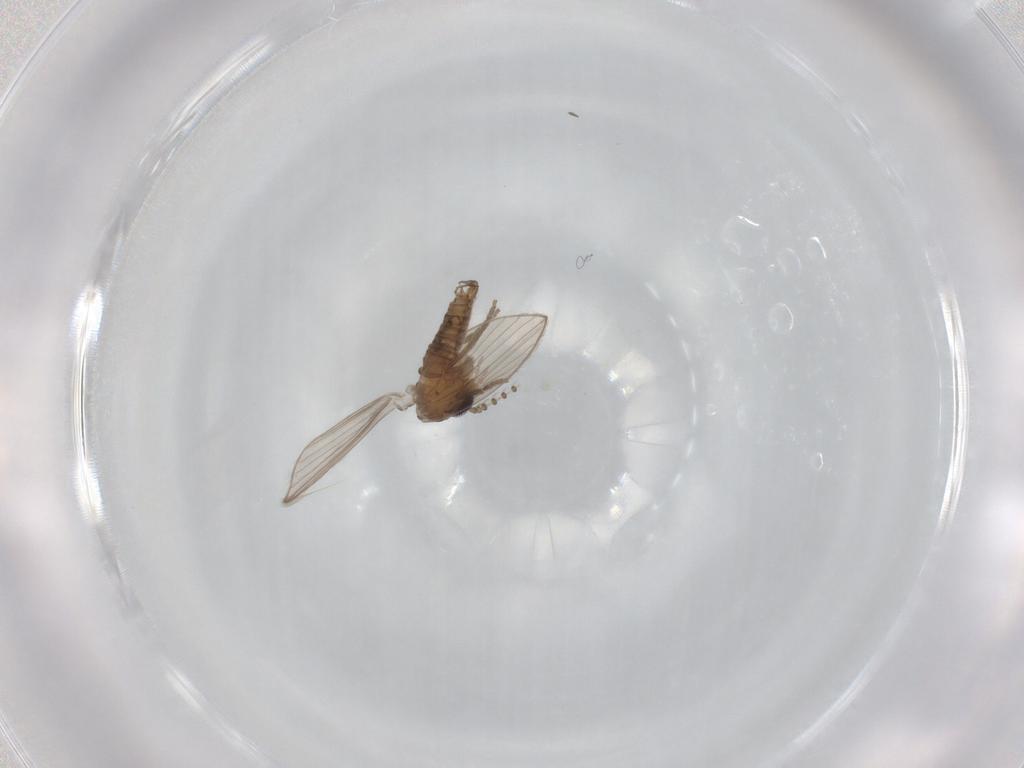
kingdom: Animalia
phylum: Arthropoda
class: Insecta
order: Diptera
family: Psychodidae
